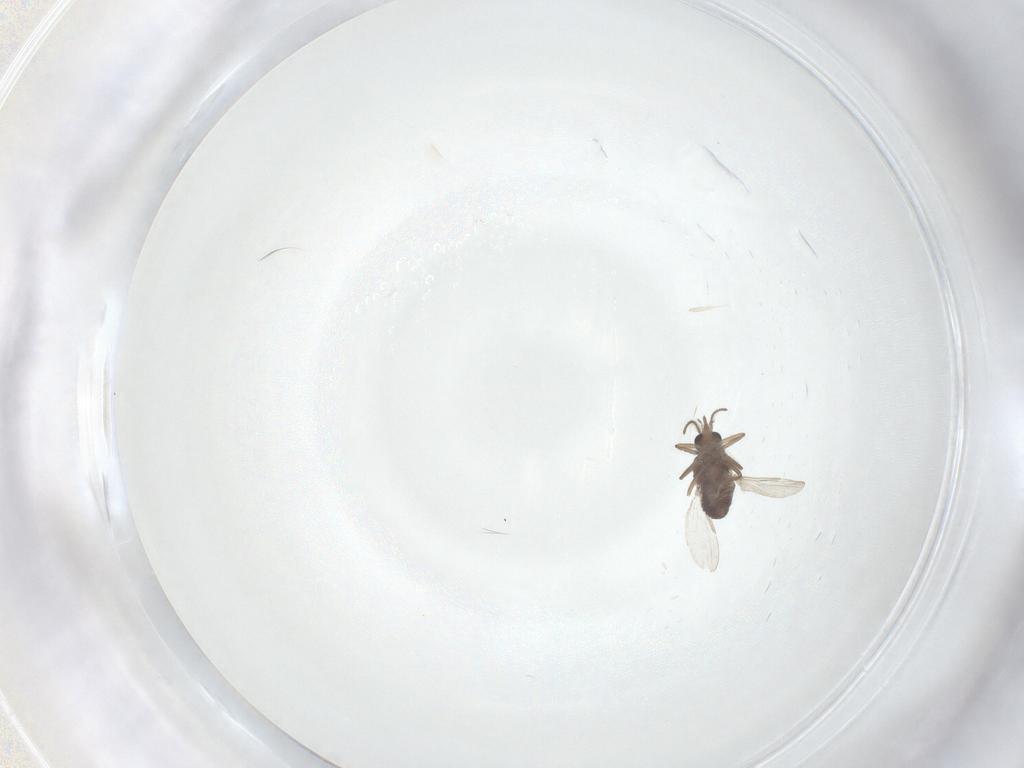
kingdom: Animalia
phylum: Arthropoda
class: Insecta
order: Diptera
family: Ceratopogonidae
